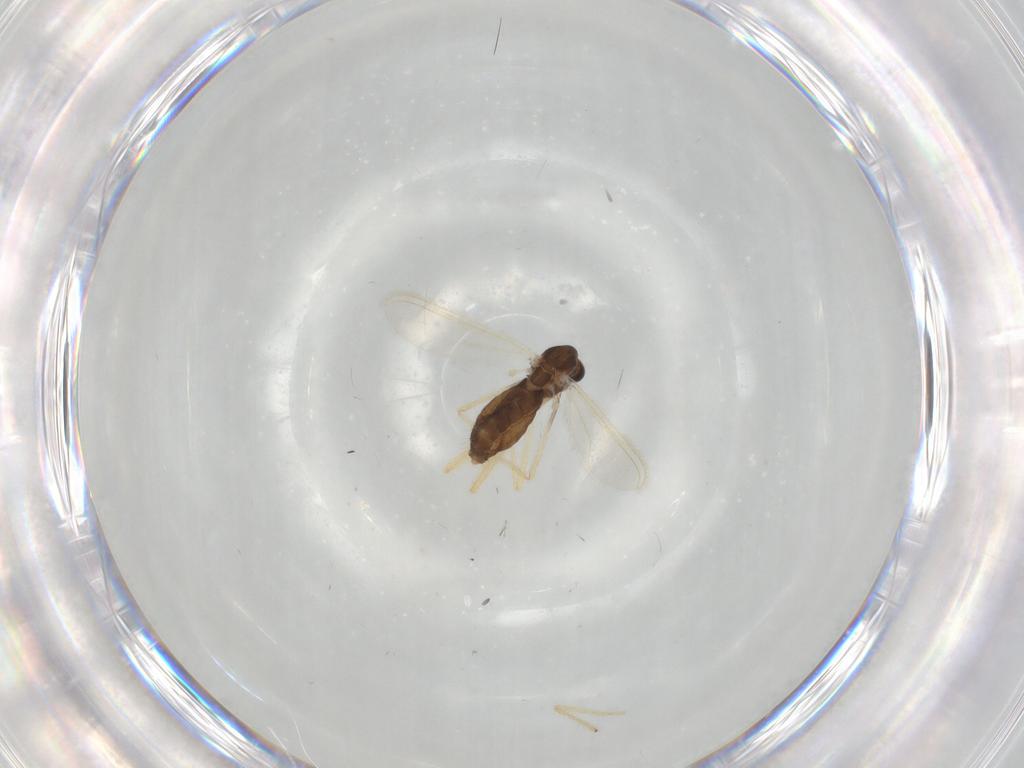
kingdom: Animalia
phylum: Arthropoda
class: Insecta
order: Diptera
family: Chironomidae
